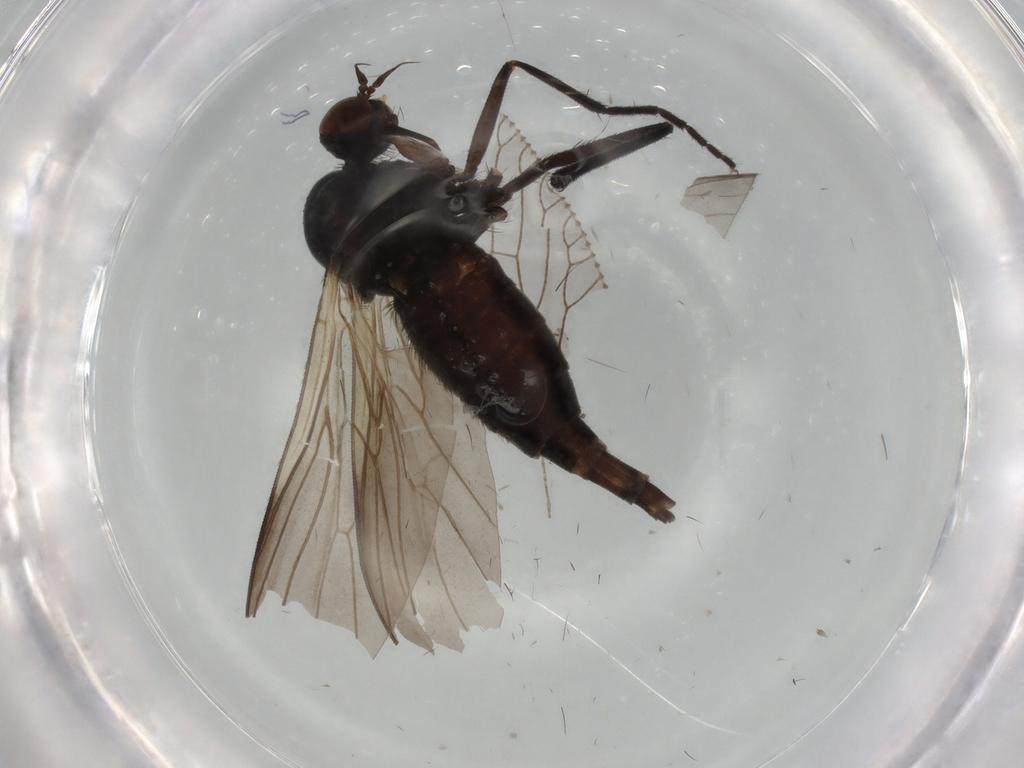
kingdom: Animalia
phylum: Arthropoda
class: Insecta
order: Diptera
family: Empididae
